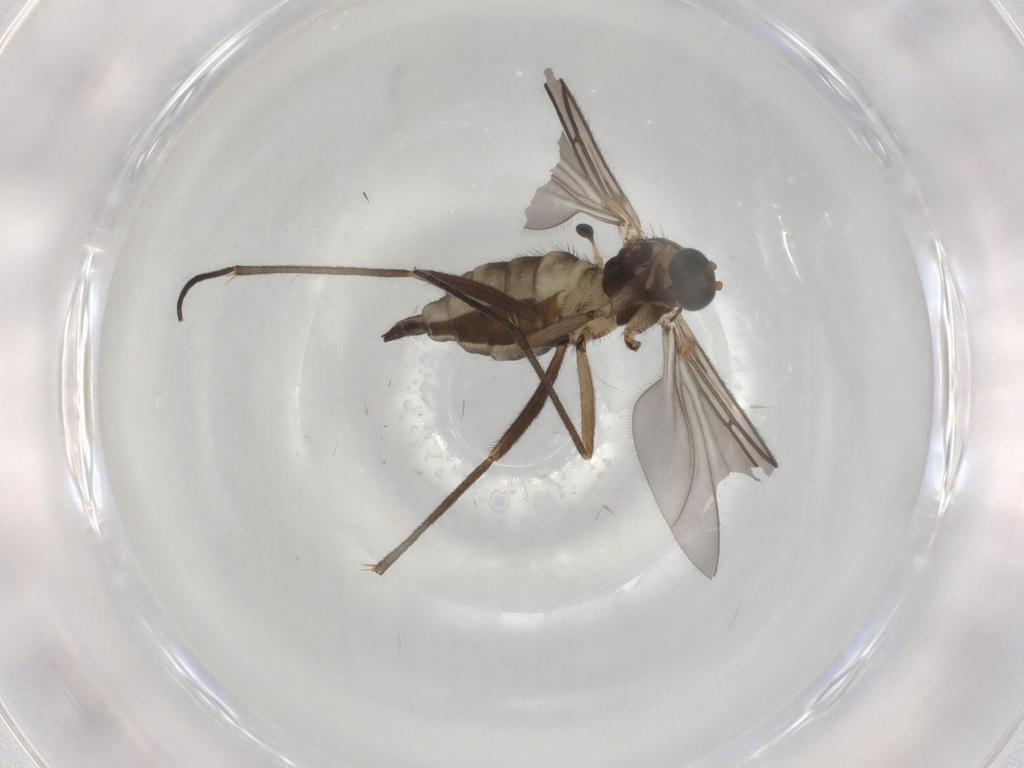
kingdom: Animalia
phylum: Arthropoda
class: Insecta
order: Diptera
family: Sciaridae
